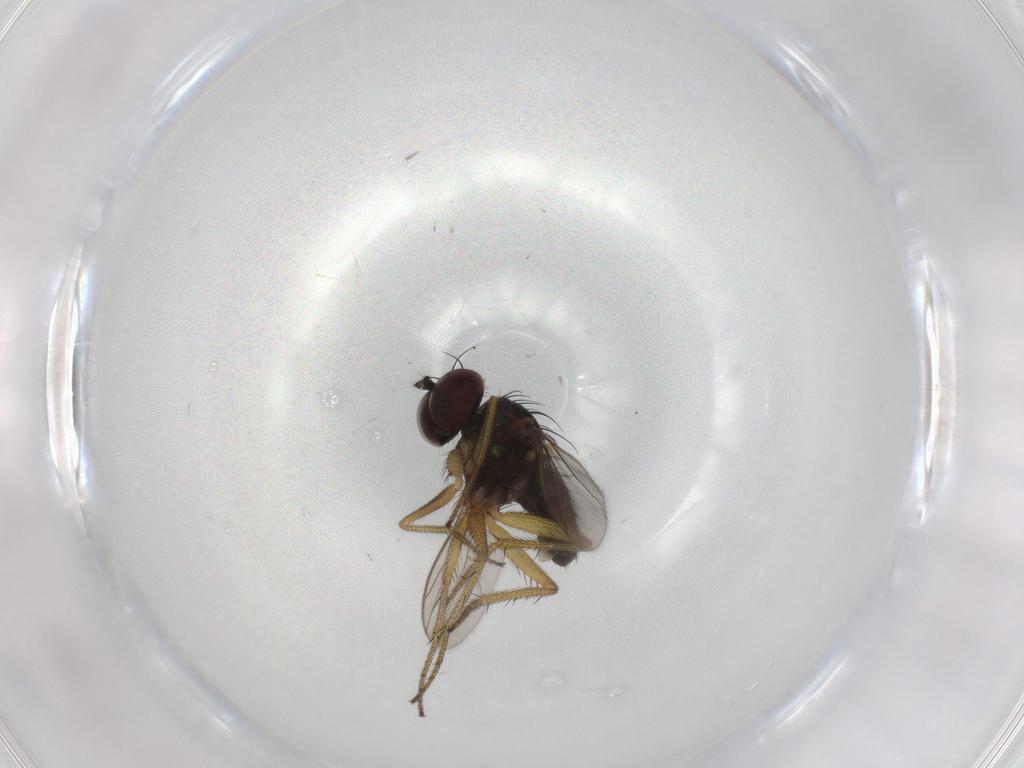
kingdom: Animalia
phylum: Arthropoda
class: Insecta
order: Diptera
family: Sciaridae
